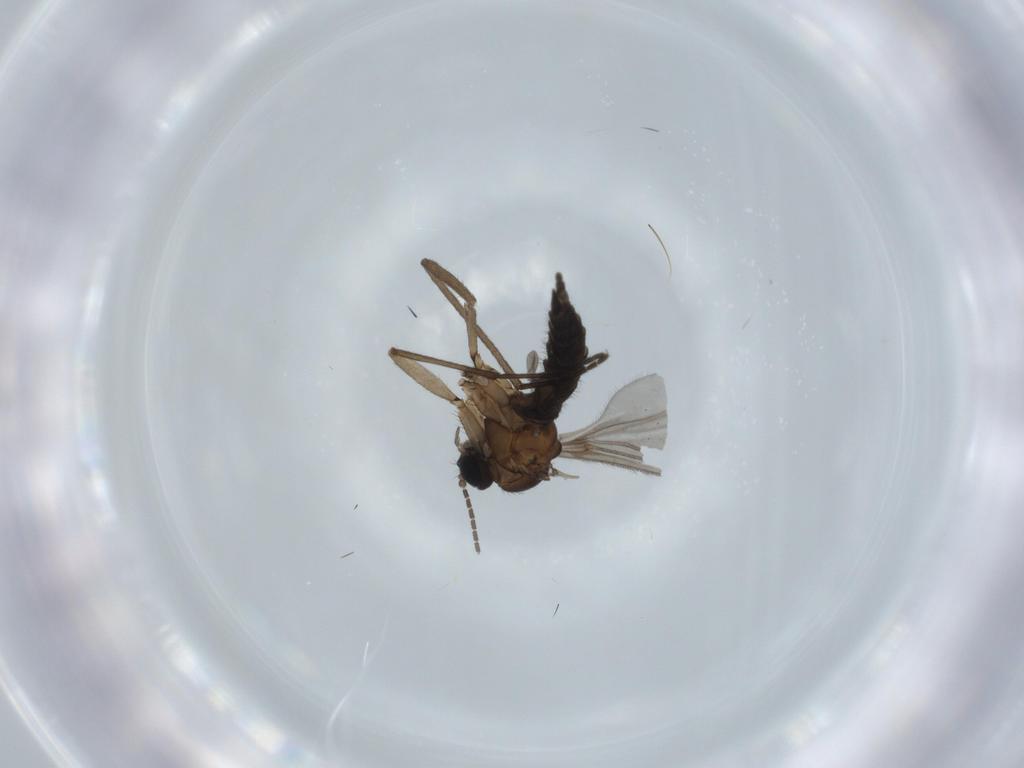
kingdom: Animalia
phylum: Arthropoda
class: Insecta
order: Diptera
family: Sciaridae
